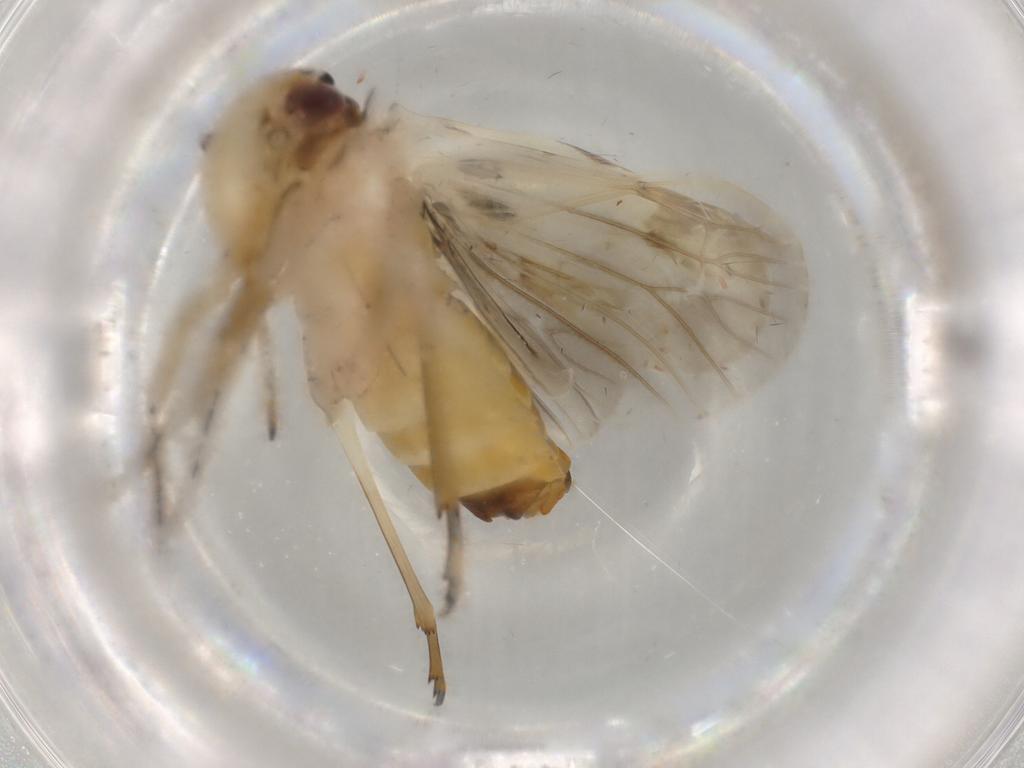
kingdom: Animalia
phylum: Arthropoda
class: Insecta
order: Hemiptera
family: Achilidae
